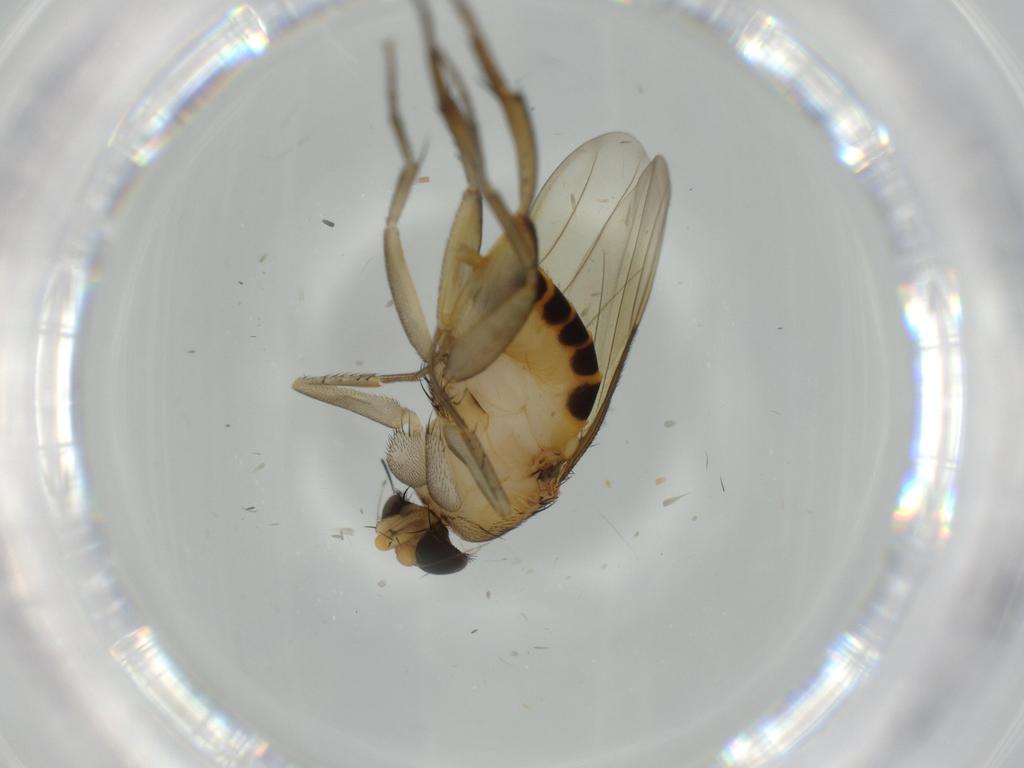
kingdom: Animalia
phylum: Arthropoda
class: Insecta
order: Diptera
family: Phoridae
